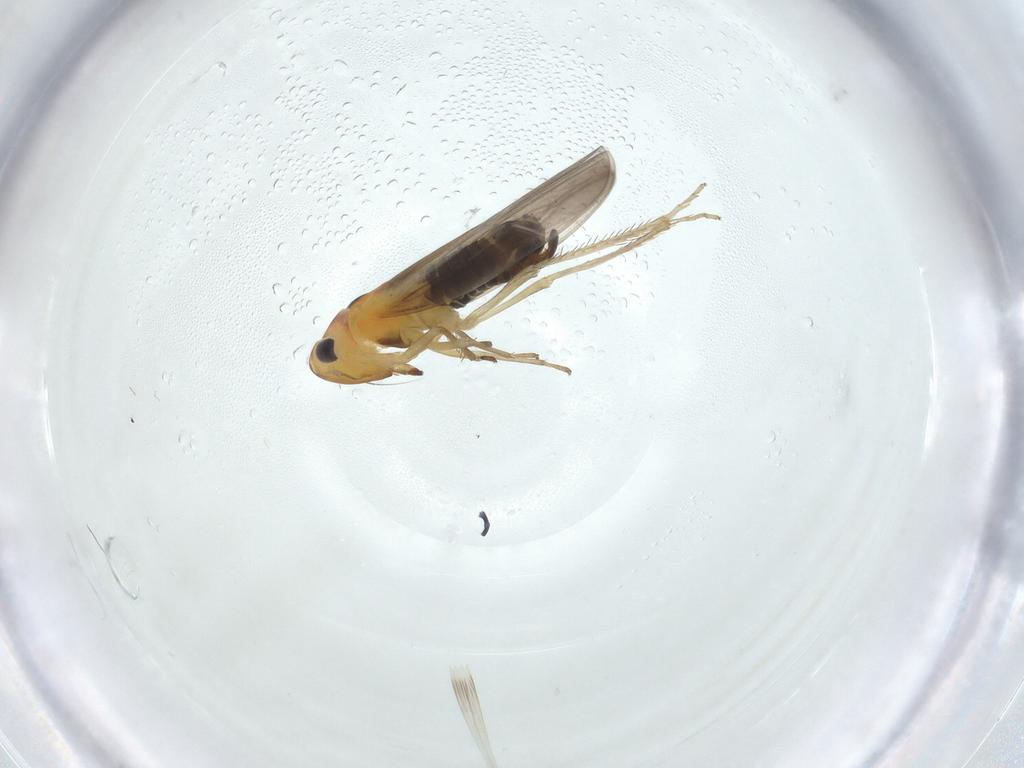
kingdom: Animalia
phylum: Arthropoda
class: Insecta
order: Hemiptera
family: Cicadellidae
